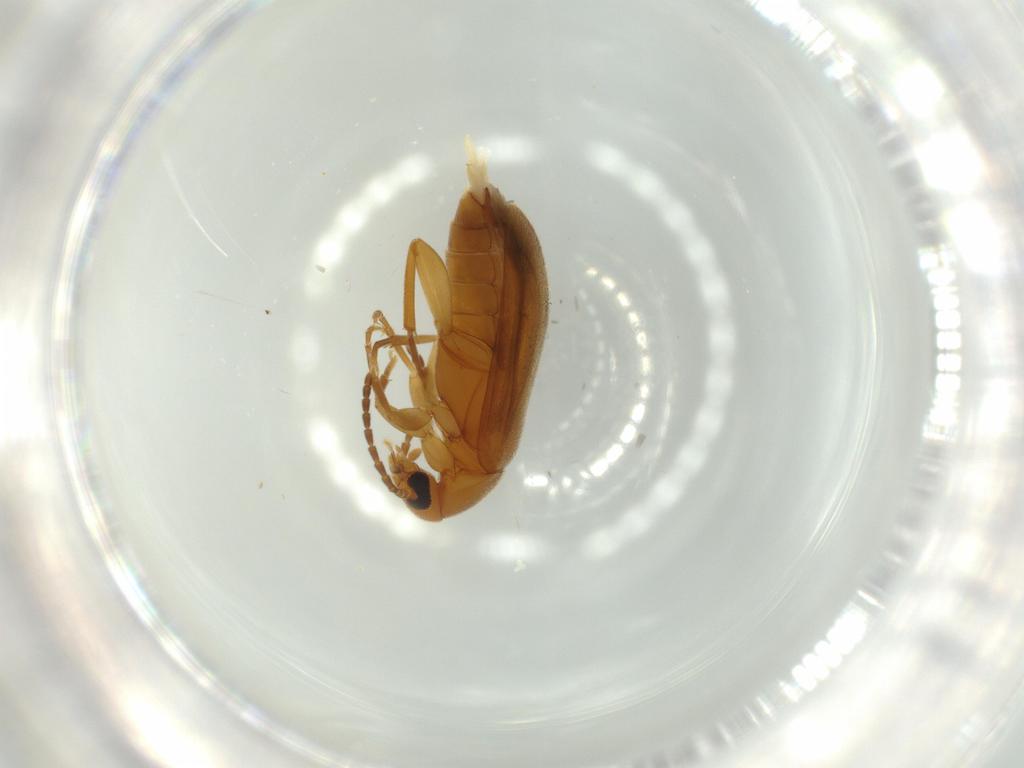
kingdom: Animalia
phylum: Arthropoda
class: Insecta
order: Coleoptera
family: Scraptiidae
